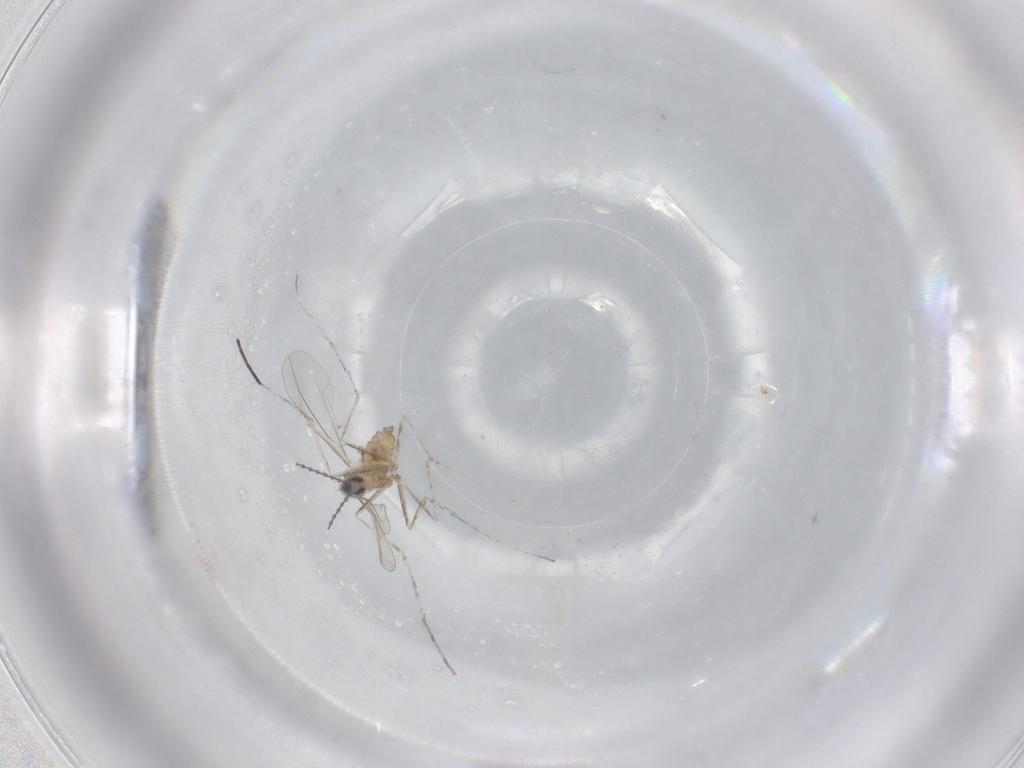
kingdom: Animalia
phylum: Arthropoda
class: Insecta
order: Diptera
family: Cecidomyiidae
